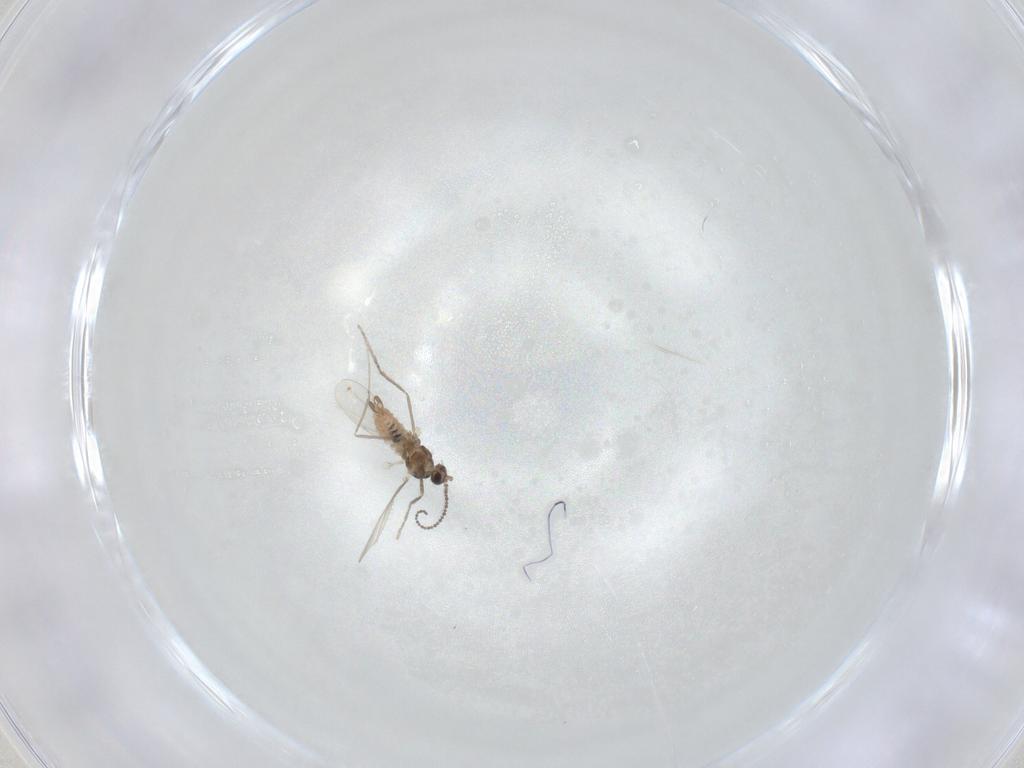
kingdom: Animalia
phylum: Arthropoda
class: Insecta
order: Diptera
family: Cecidomyiidae
